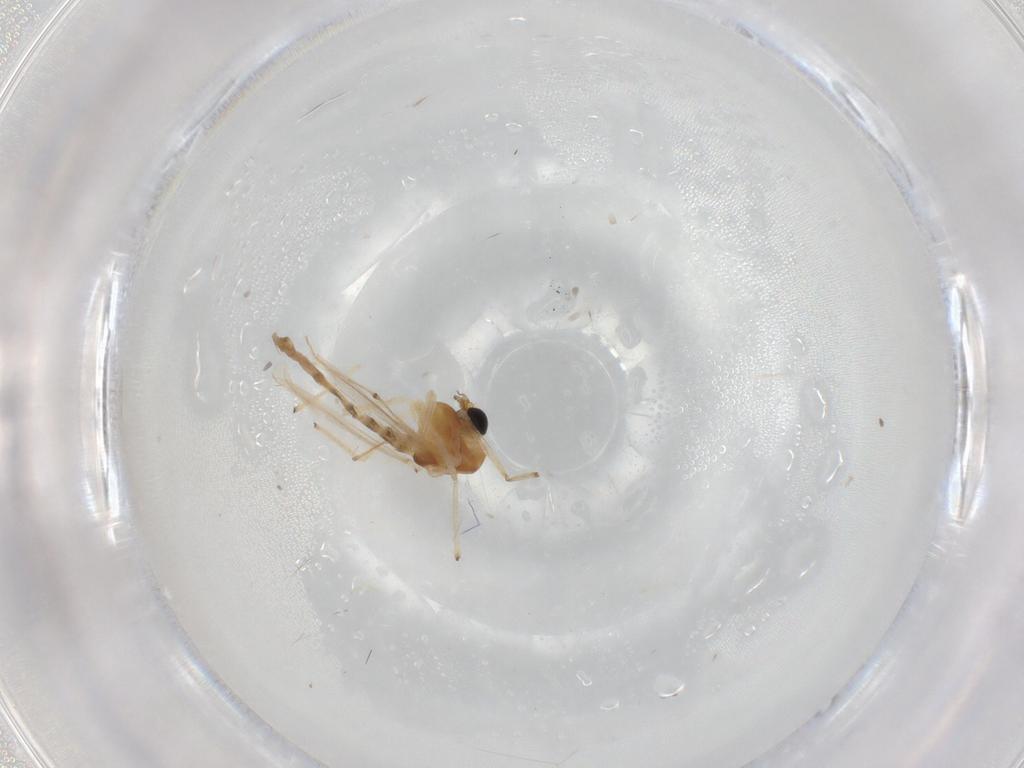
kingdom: Animalia
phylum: Arthropoda
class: Insecta
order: Diptera
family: Chironomidae
